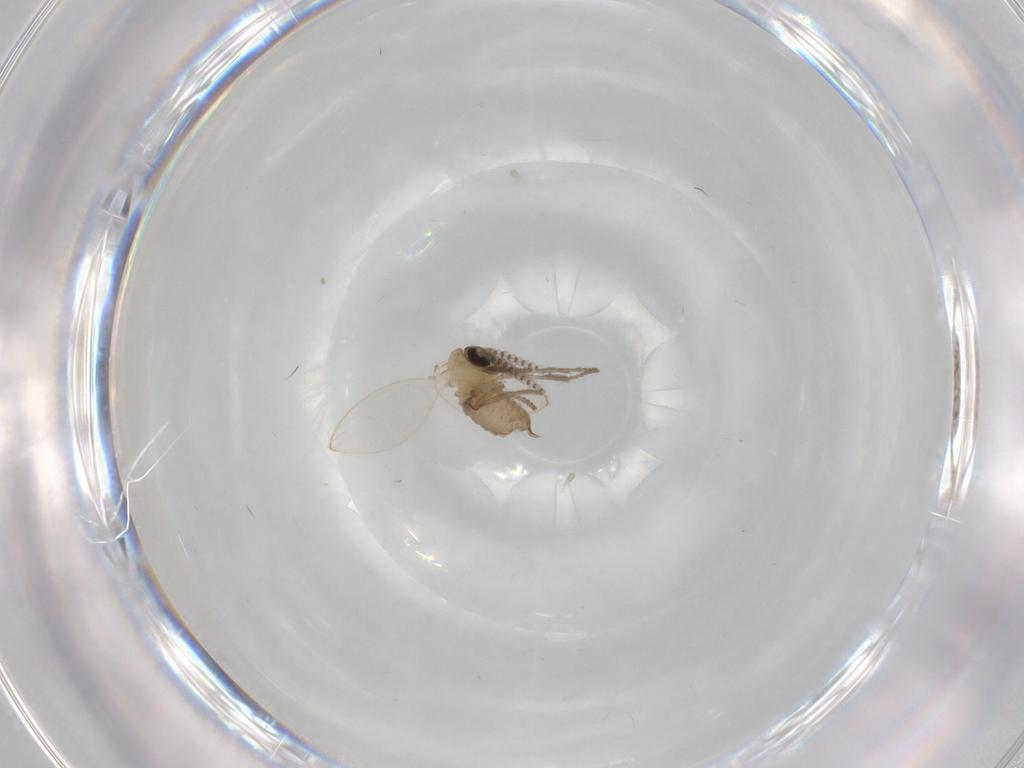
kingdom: Animalia
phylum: Arthropoda
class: Insecta
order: Diptera
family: Psychodidae
